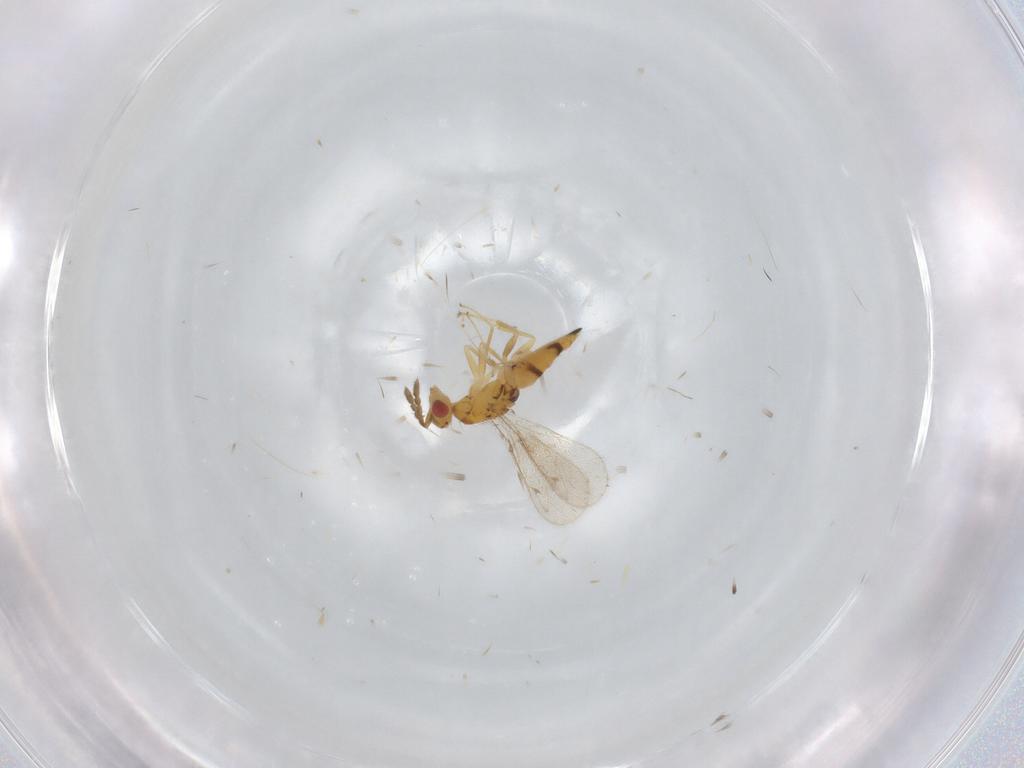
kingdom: Animalia
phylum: Arthropoda
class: Insecta
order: Hymenoptera
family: Eulophidae
